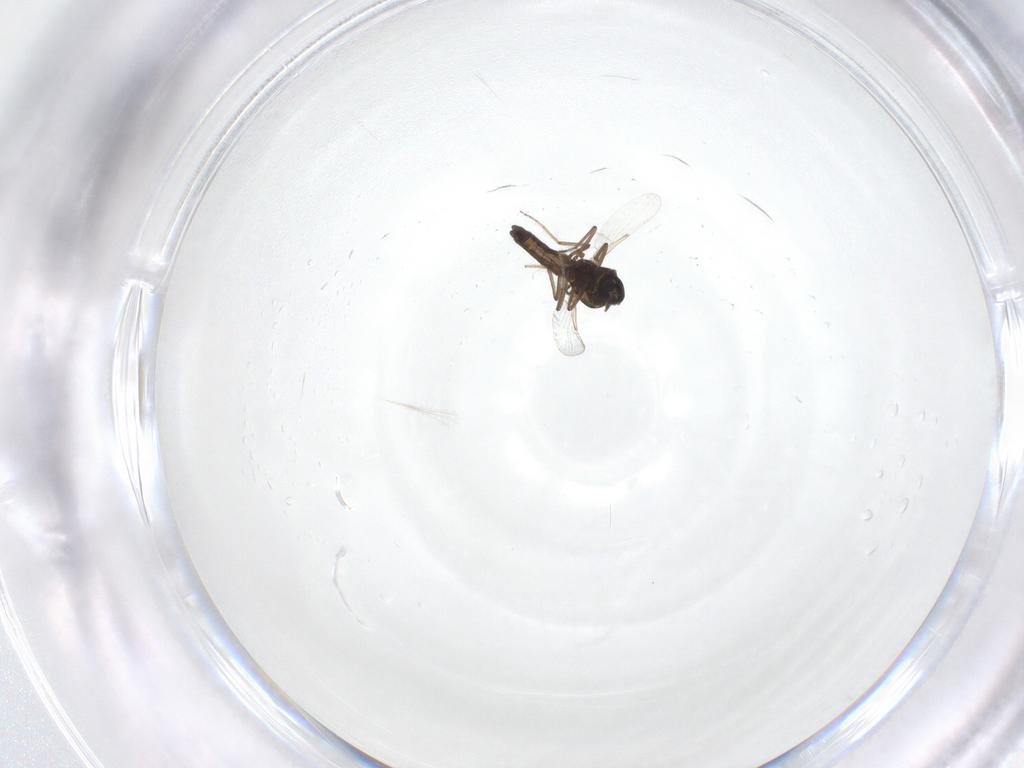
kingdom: Animalia
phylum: Arthropoda
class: Insecta
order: Diptera
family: Ceratopogonidae
